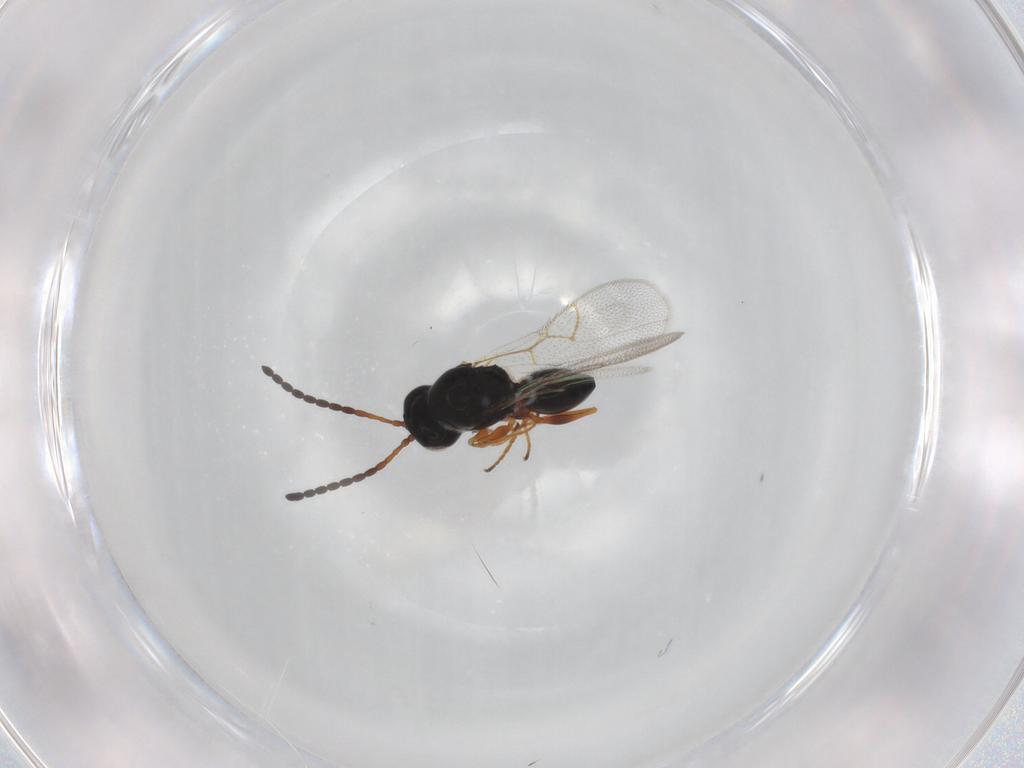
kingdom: Animalia
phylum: Arthropoda
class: Insecta
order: Hymenoptera
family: Figitidae
